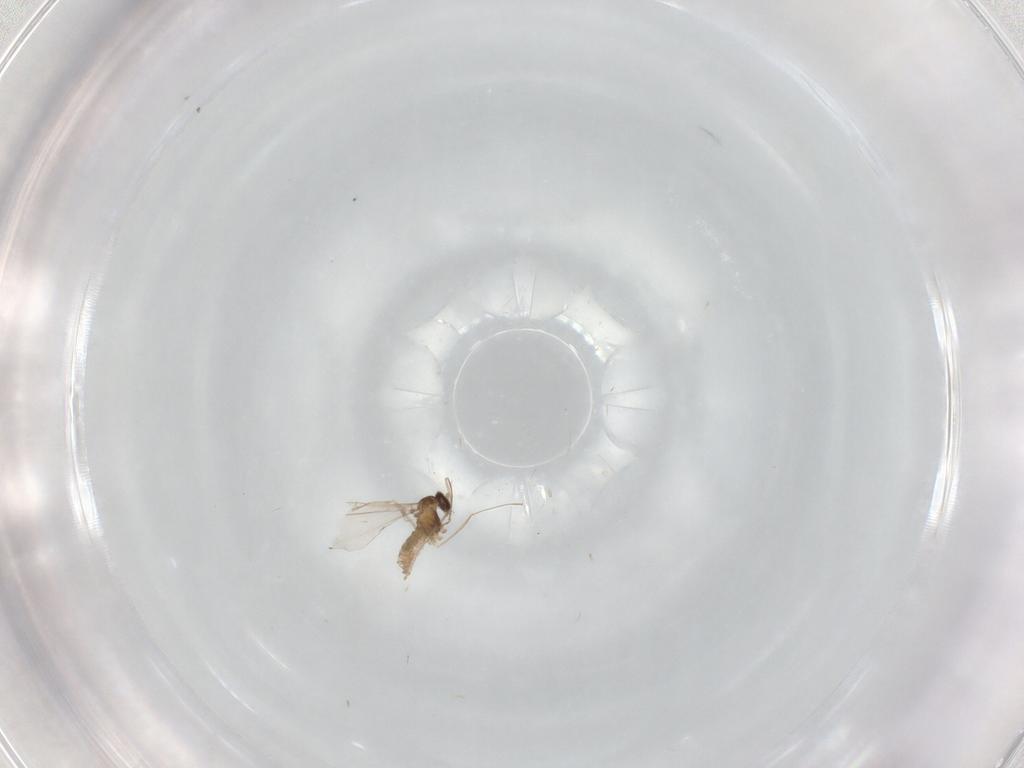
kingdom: Animalia
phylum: Arthropoda
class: Insecta
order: Diptera
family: Cecidomyiidae
